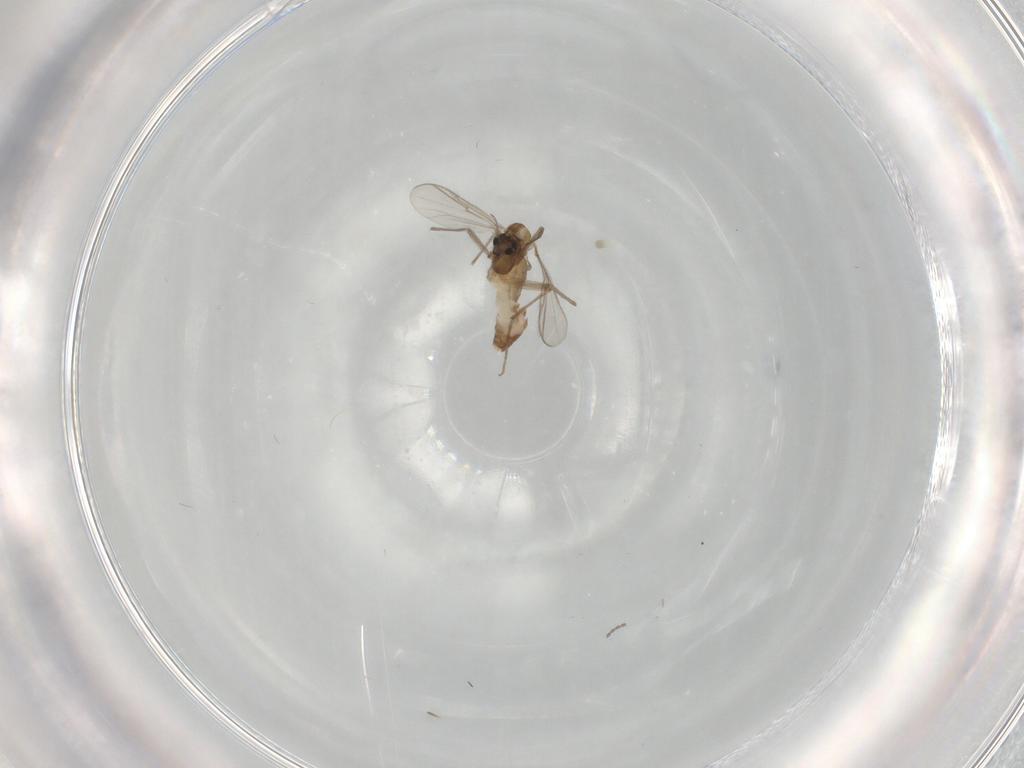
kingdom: Animalia
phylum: Arthropoda
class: Insecta
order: Diptera
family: Chironomidae
